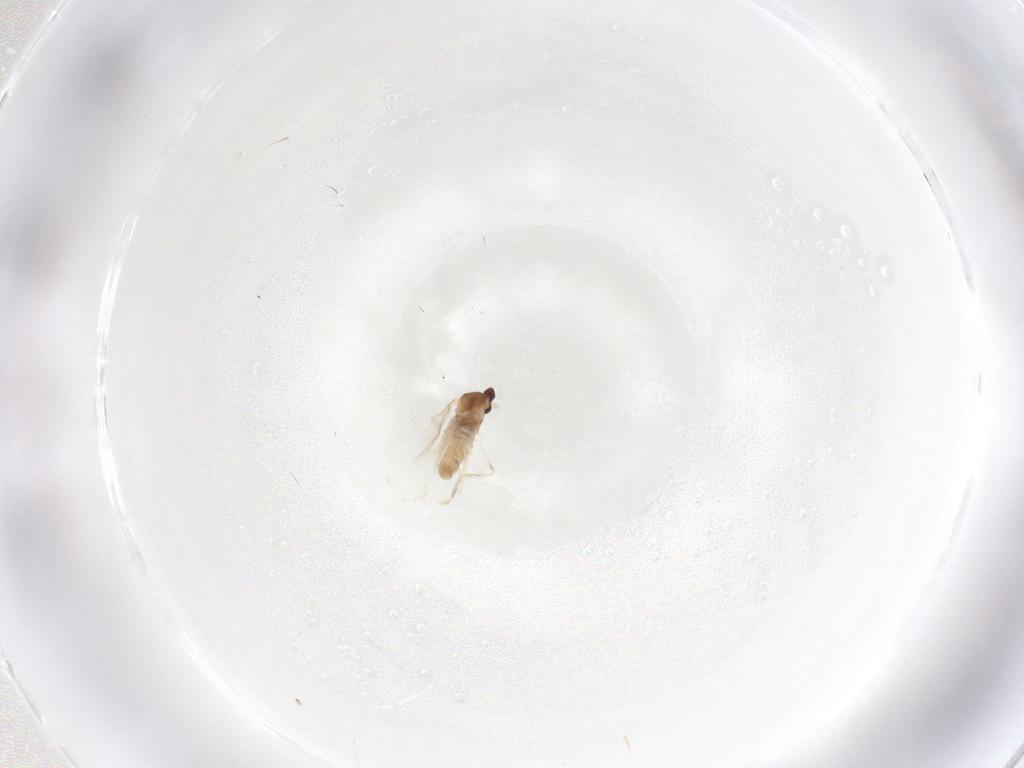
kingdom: Animalia
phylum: Arthropoda
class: Insecta
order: Diptera
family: Cecidomyiidae
